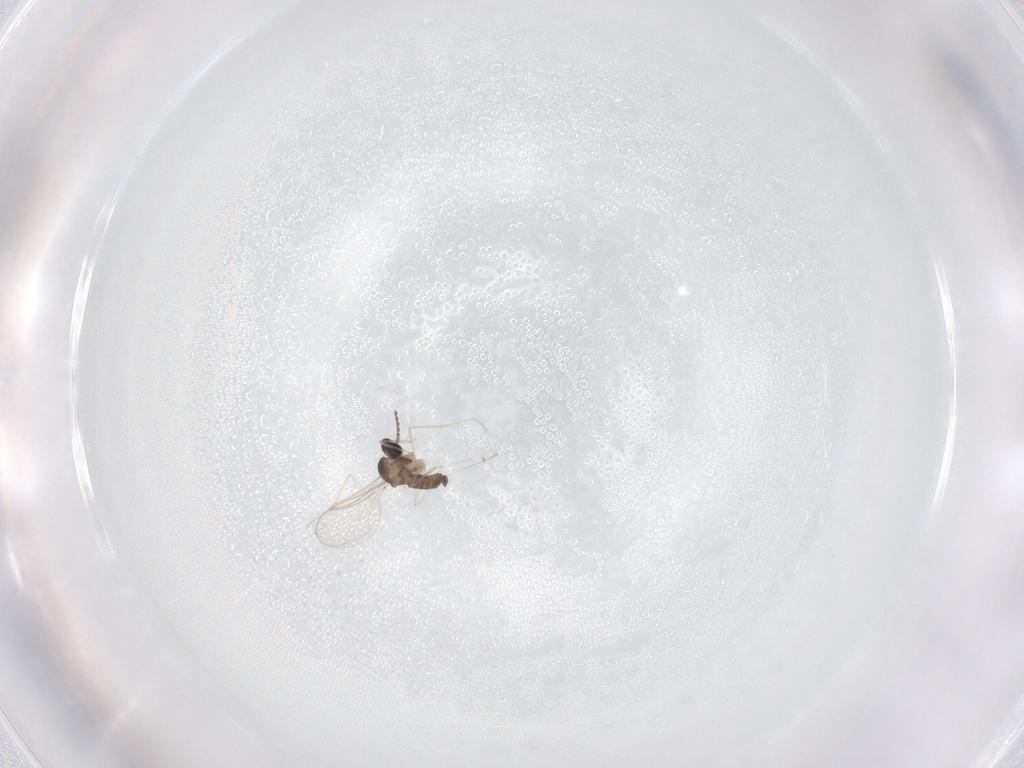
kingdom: Animalia
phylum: Arthropoda
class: Insecta
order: Diptera
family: Cecidomyiidae
